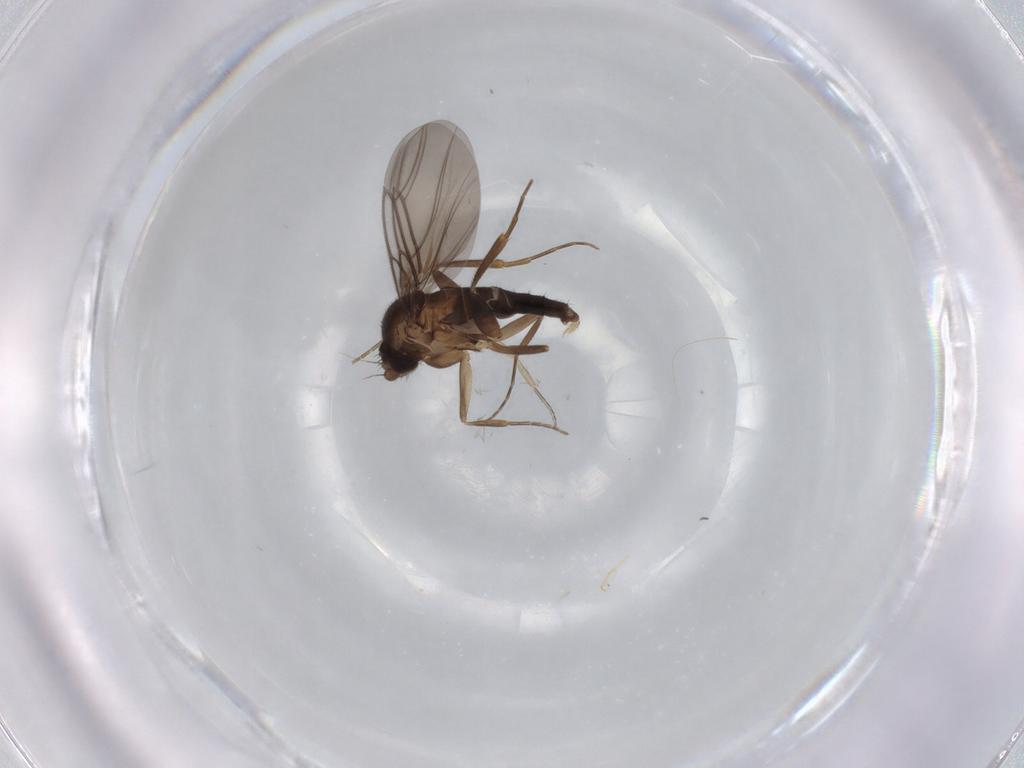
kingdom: Animalia
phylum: Arthropoda
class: Insecta
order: Diptera
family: Phoridae
